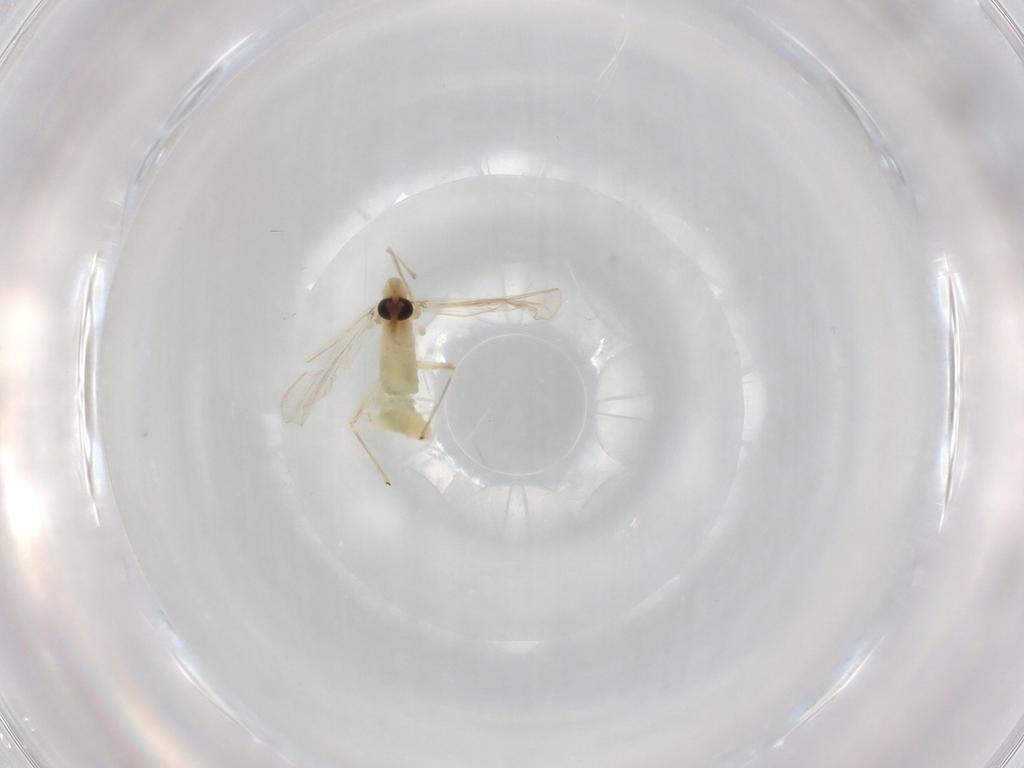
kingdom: Animalia
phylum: Arthropoda
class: Insecta
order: Diptera
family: Chironomidae
